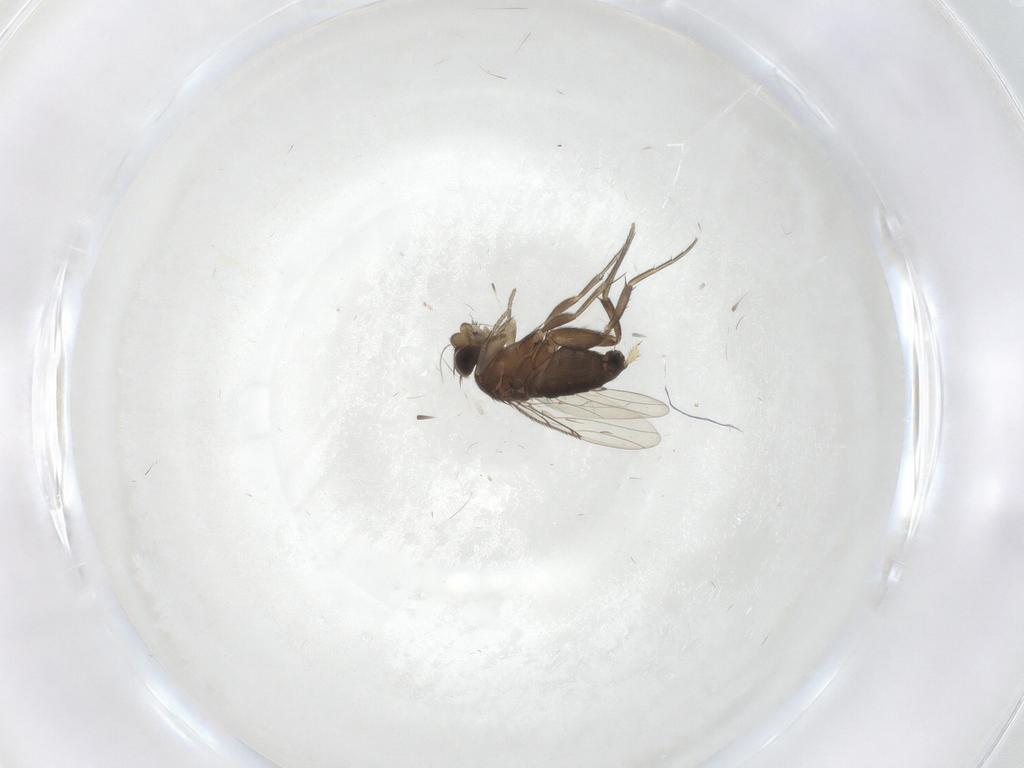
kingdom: Animalia
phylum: Arthropoda
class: Insecta
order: Diptera
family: Phoridae
